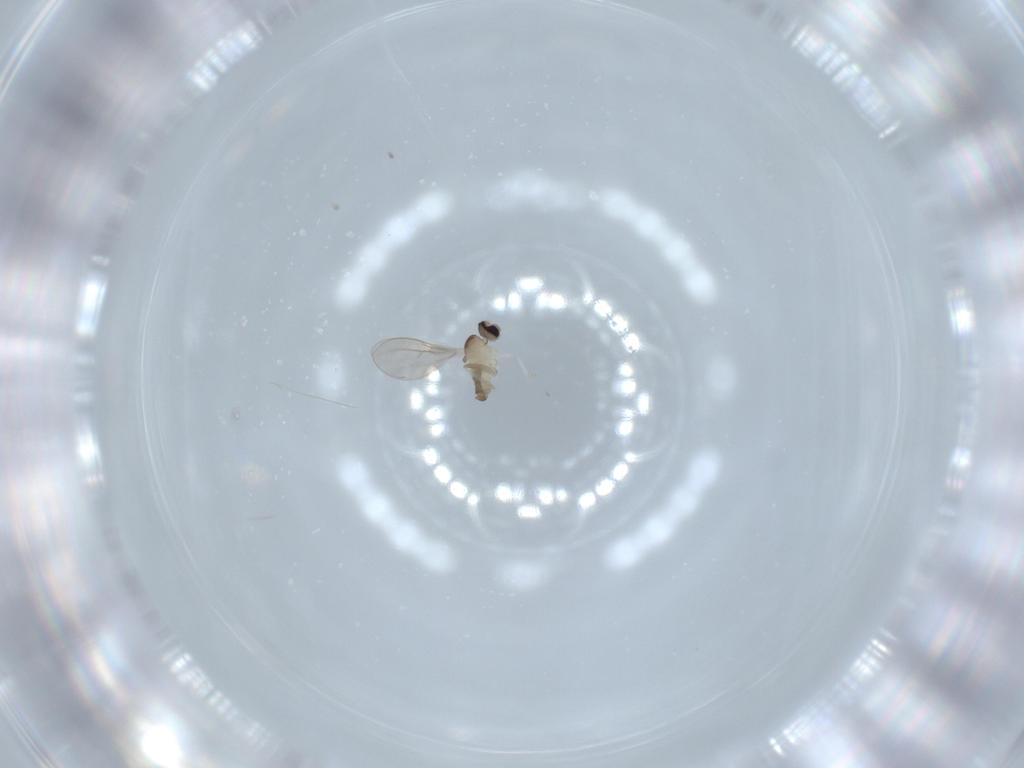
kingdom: Animalia
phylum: Arthropoda
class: Insecta
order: Diptera
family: Cecidomyiidae
